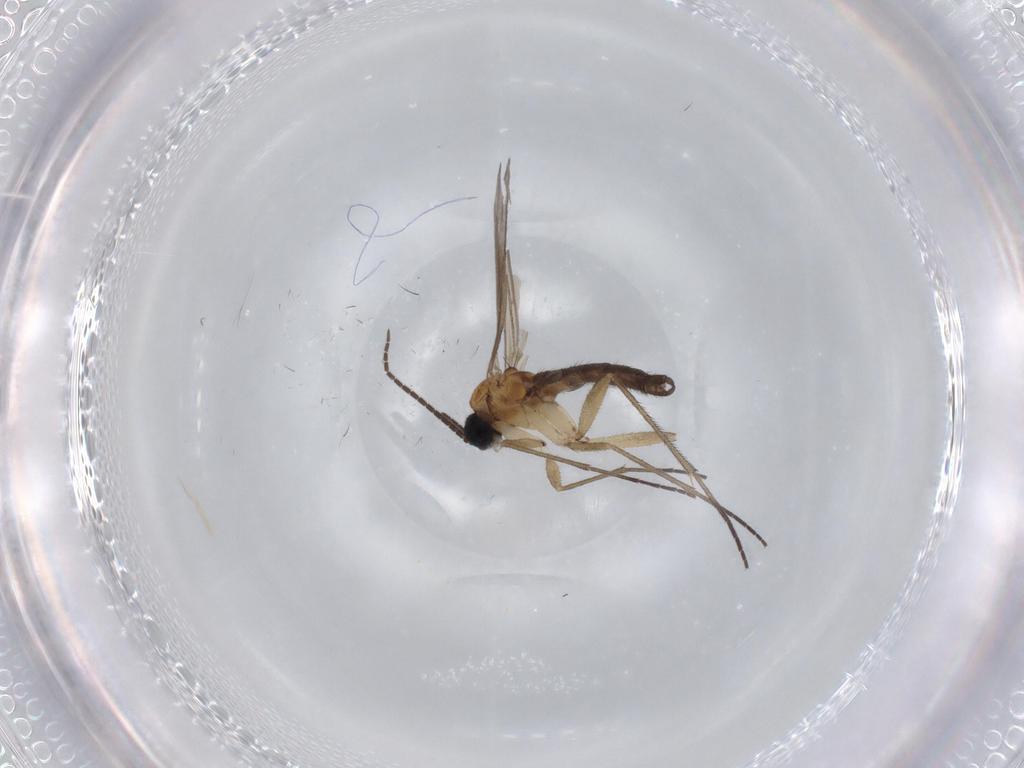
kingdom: Animalia
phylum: Arthropoda
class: Insecta
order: Diptera
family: Cecidomyiidae
